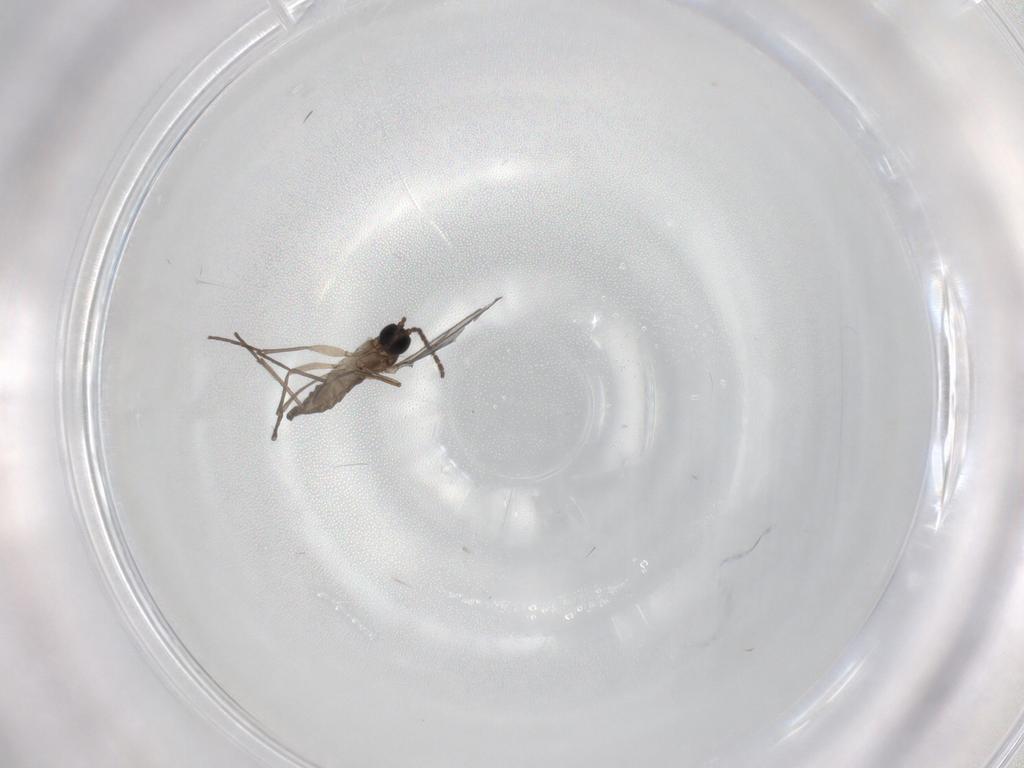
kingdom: Animalia
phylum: Arthropoda
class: Insecta
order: Diptera
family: Sciaridae
